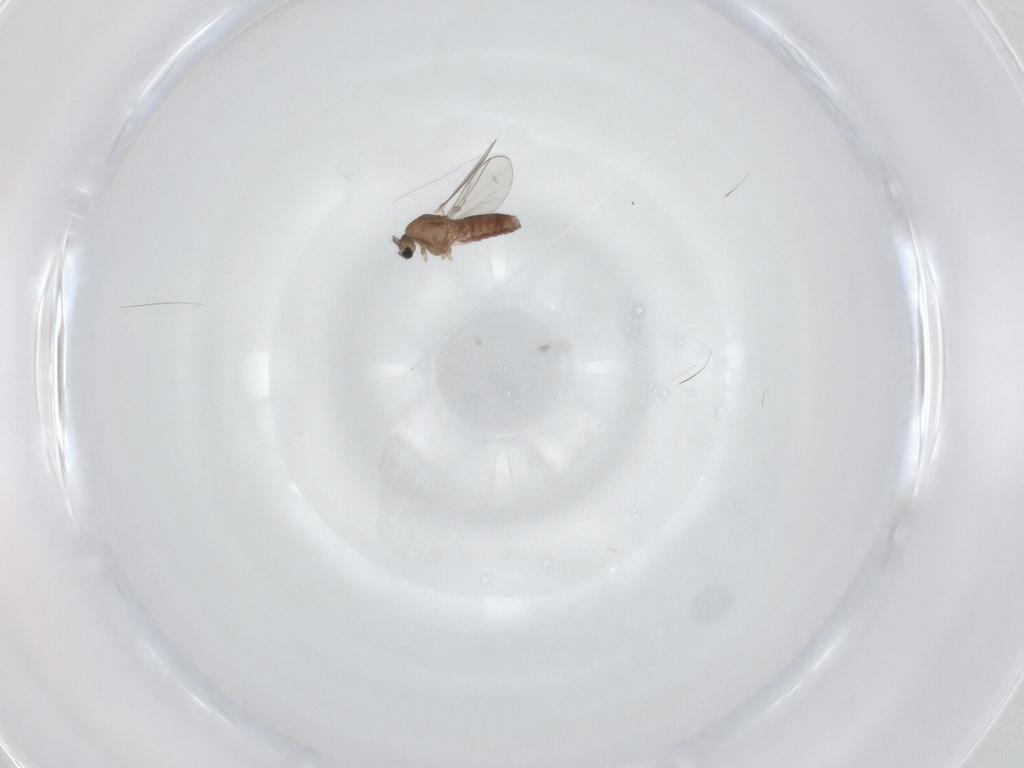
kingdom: Animalia
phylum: Arthropoda
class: Insecta
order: Diptera
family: Chironomidae
